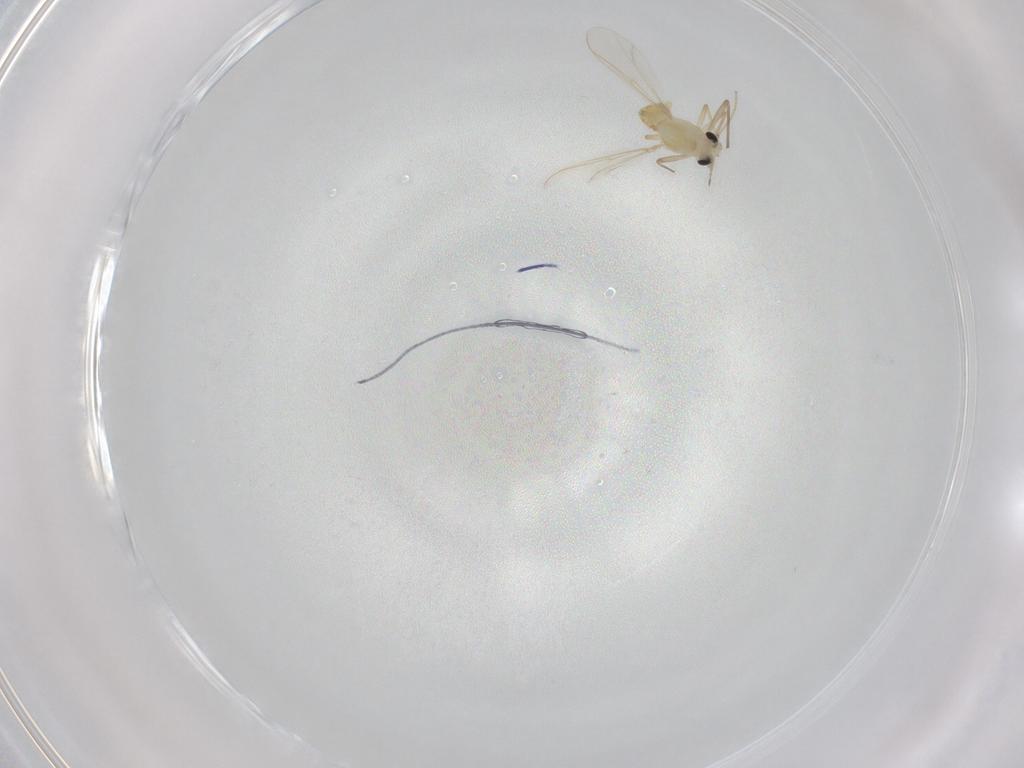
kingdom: Animalia
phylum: Arthropoda
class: Insecta
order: Diptera
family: Chironomidae
